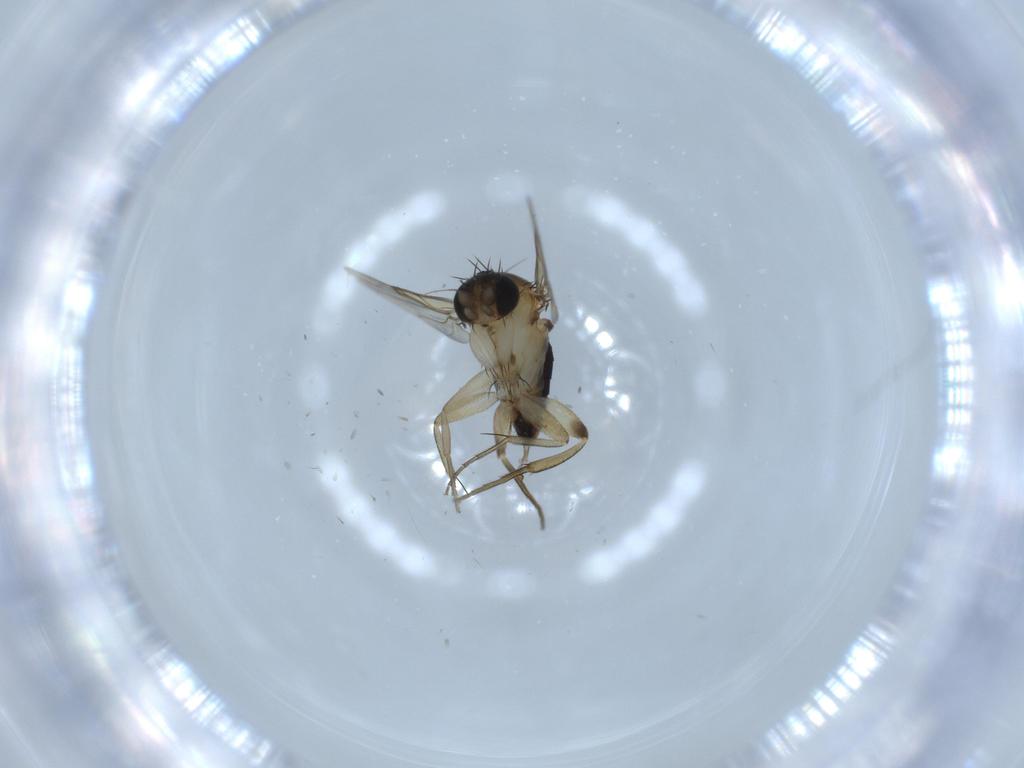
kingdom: Animalia
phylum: Arthropoda
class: Insecta
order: Diptera
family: Phoridae
